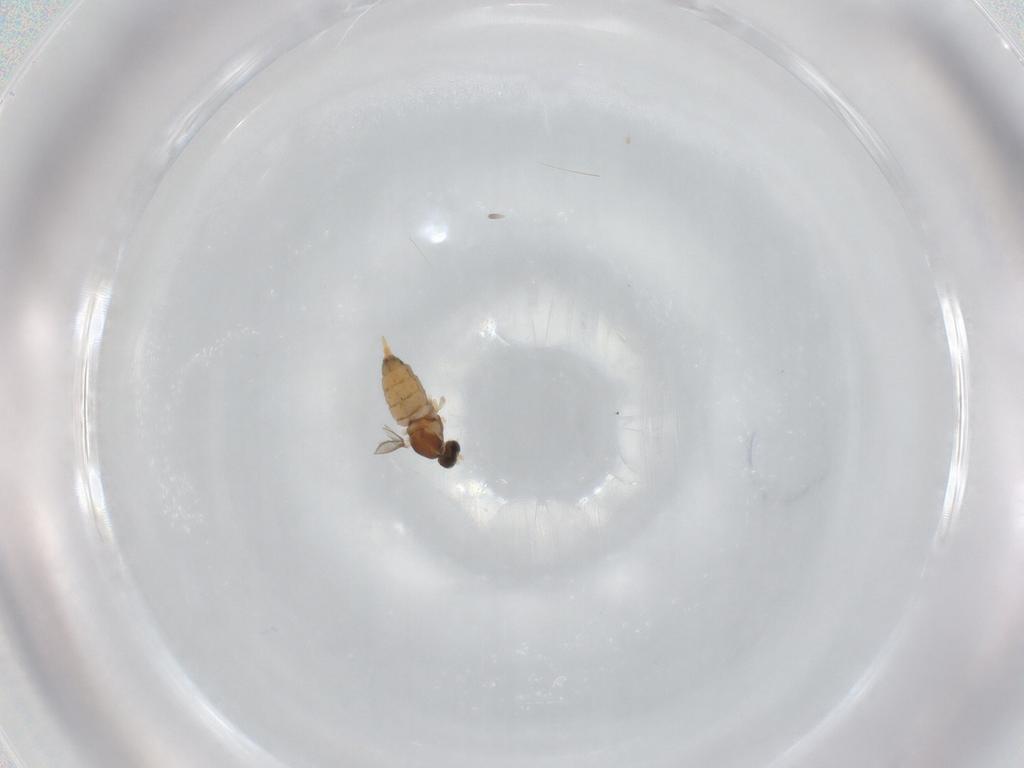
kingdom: Animalia
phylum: Arthropoda
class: Insecta
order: Diptera
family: Cecidomyiidae
